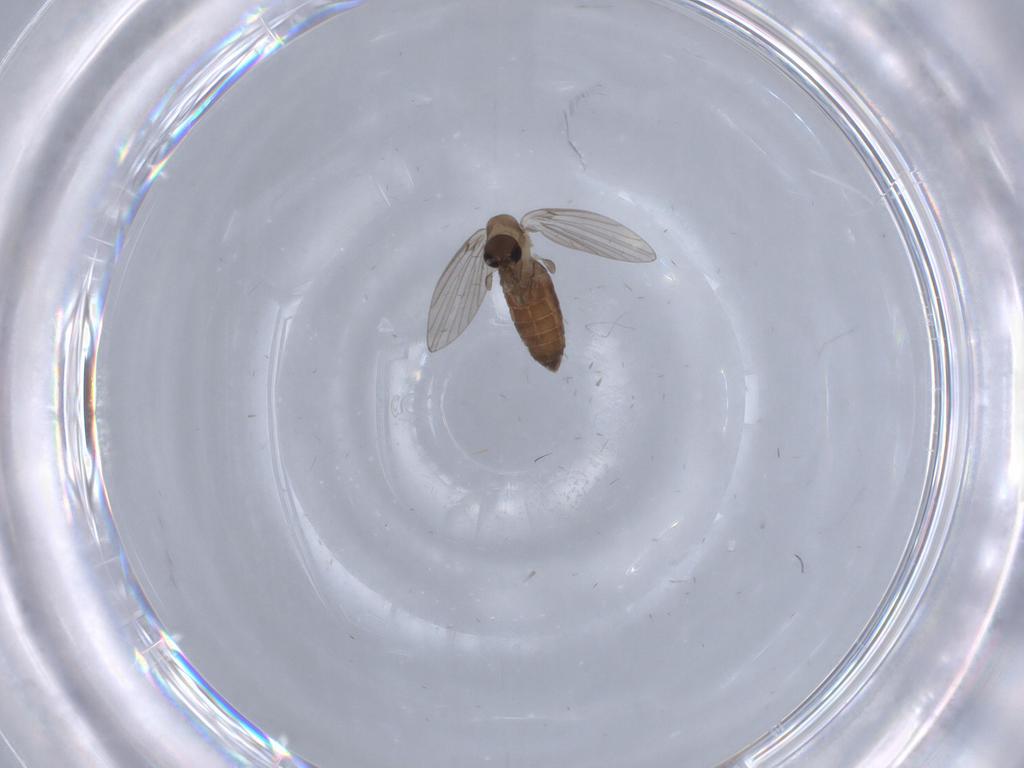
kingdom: Animalia
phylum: Arthropoda
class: Insecta
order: Diptera
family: Psychodidae
